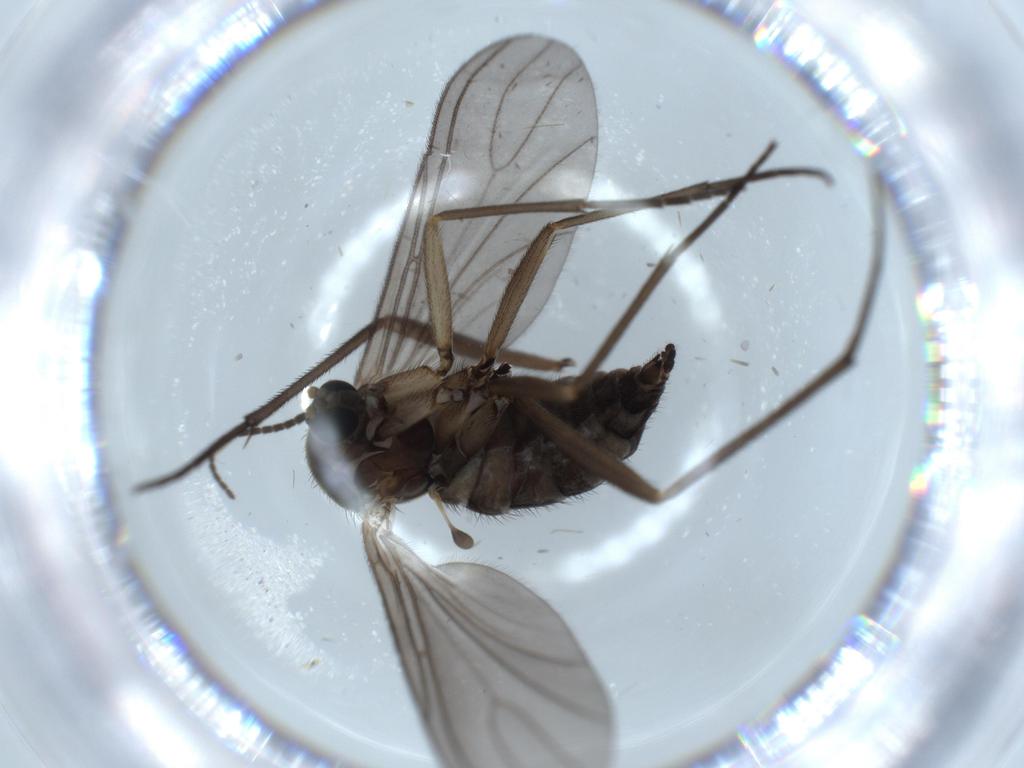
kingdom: Animalia
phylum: Arthropoda
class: Insecta
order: Diptera
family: Sciaridae
